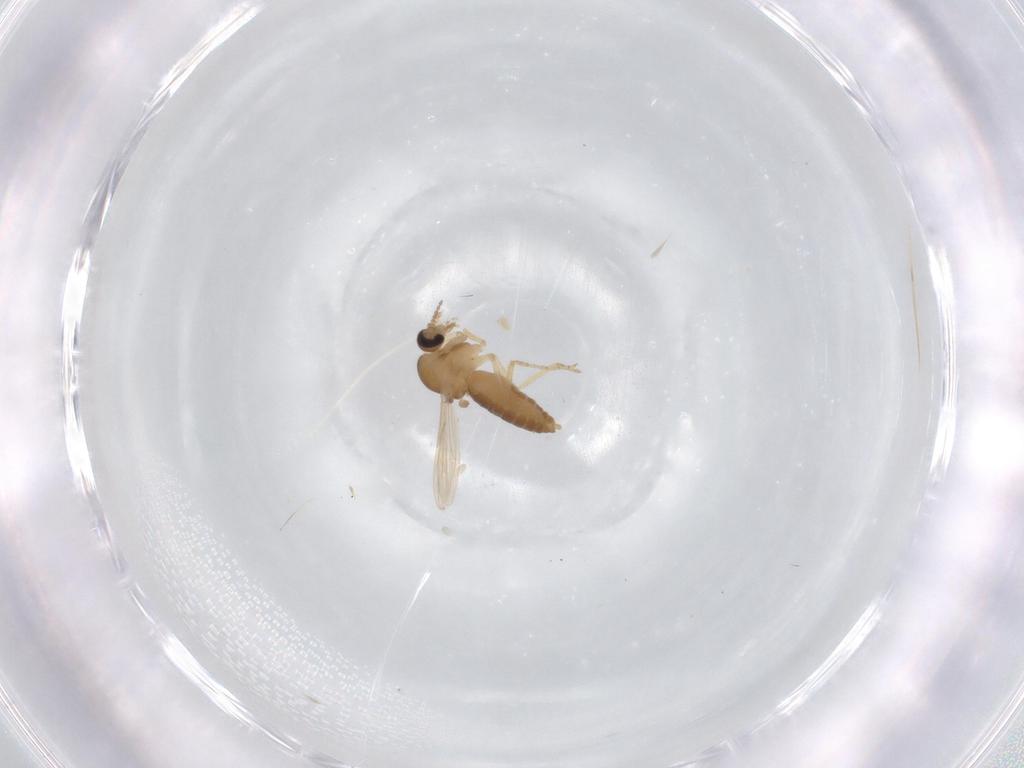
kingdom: Animalia
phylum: Arthropoda
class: Insecta
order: Diptera
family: Ceratopogonidae
